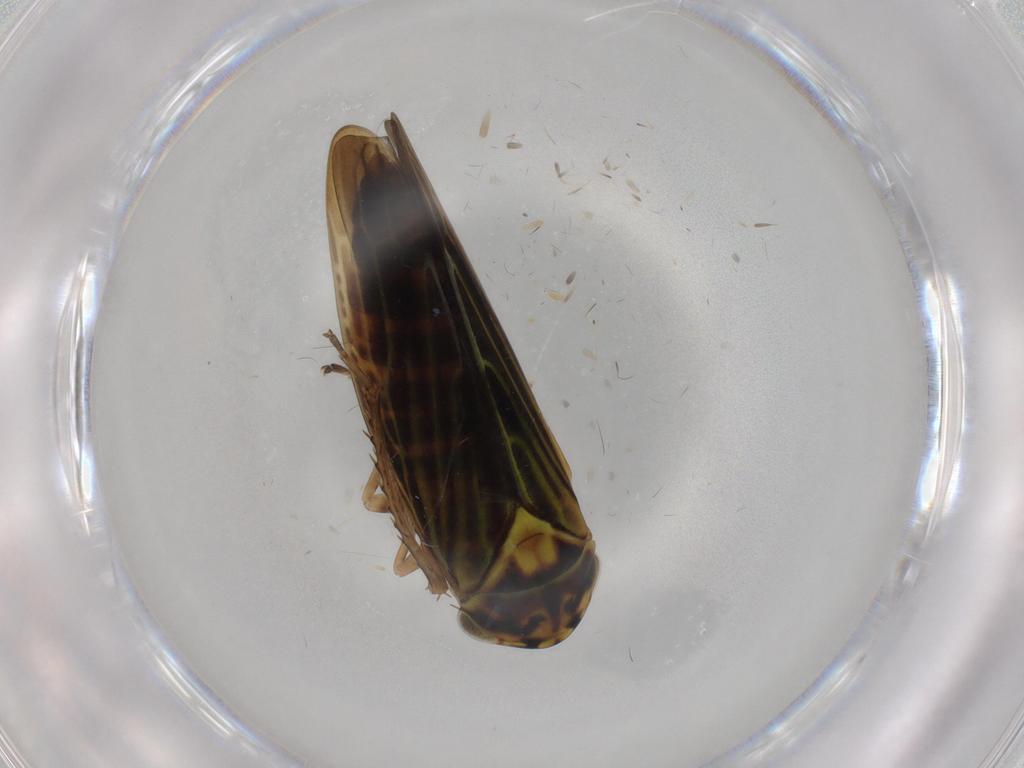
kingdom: Animalia
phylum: Arthropoda
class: Insecta
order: Hemiptera
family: Cicadellidae
